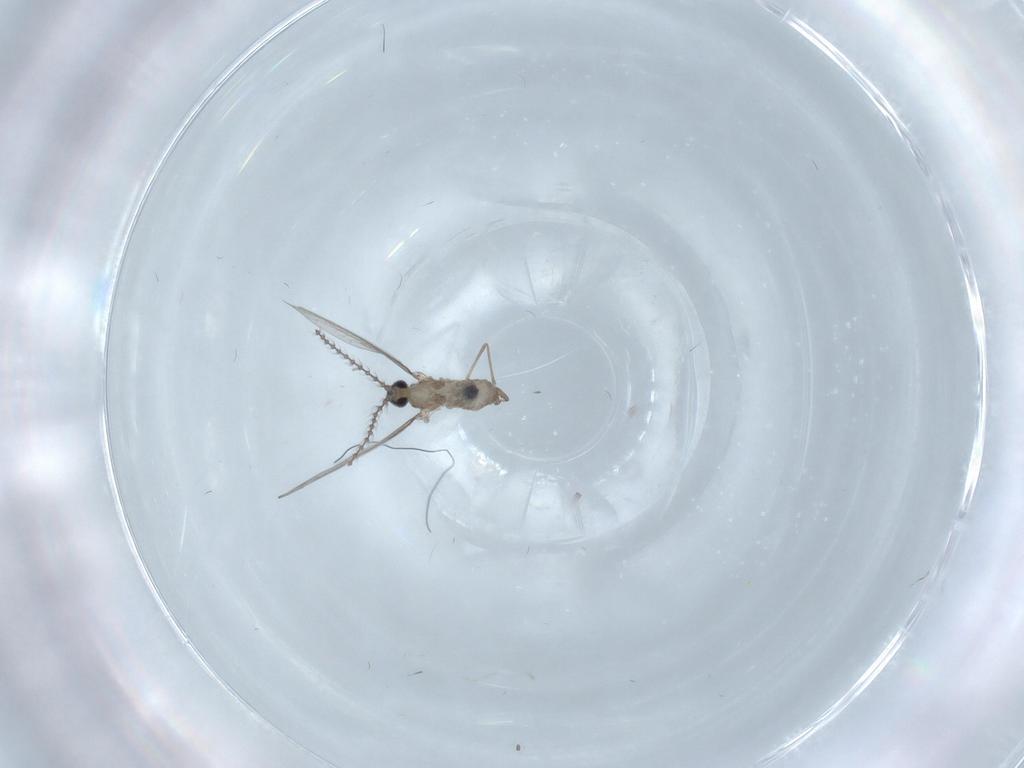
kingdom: Animalia
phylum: Arthropoda
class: Insecta
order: Diptera
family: Cecidomyiidae
